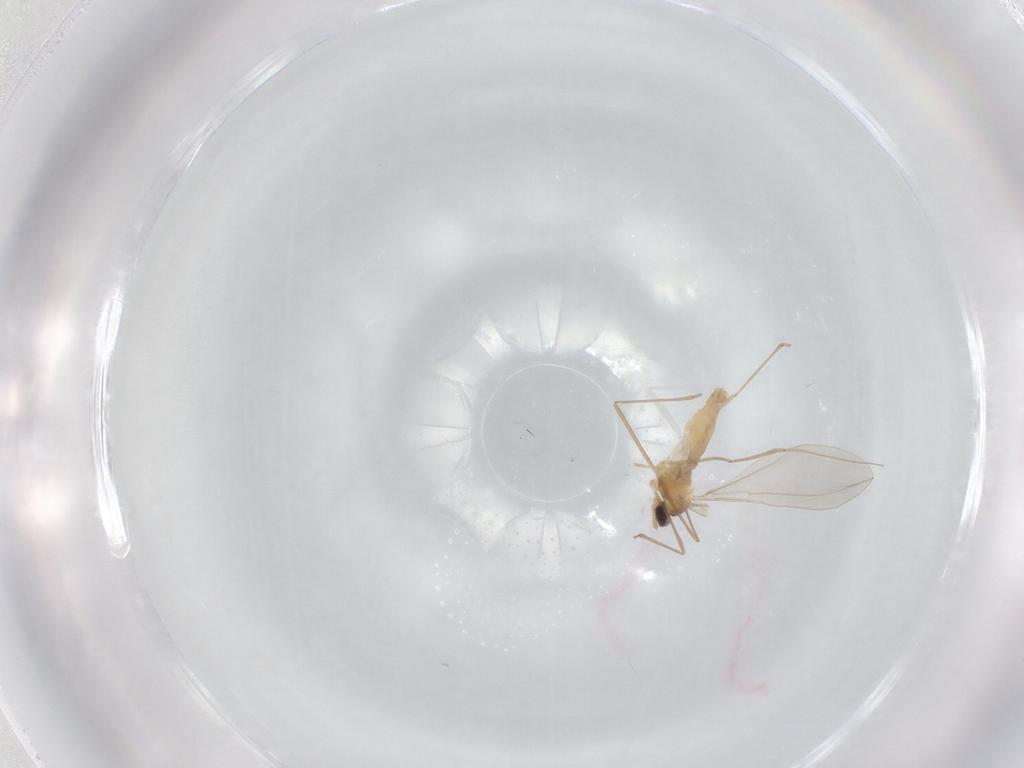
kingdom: Animalia
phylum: Arthropoda
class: Insecta
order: Diptera
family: Cecidomyiidae
